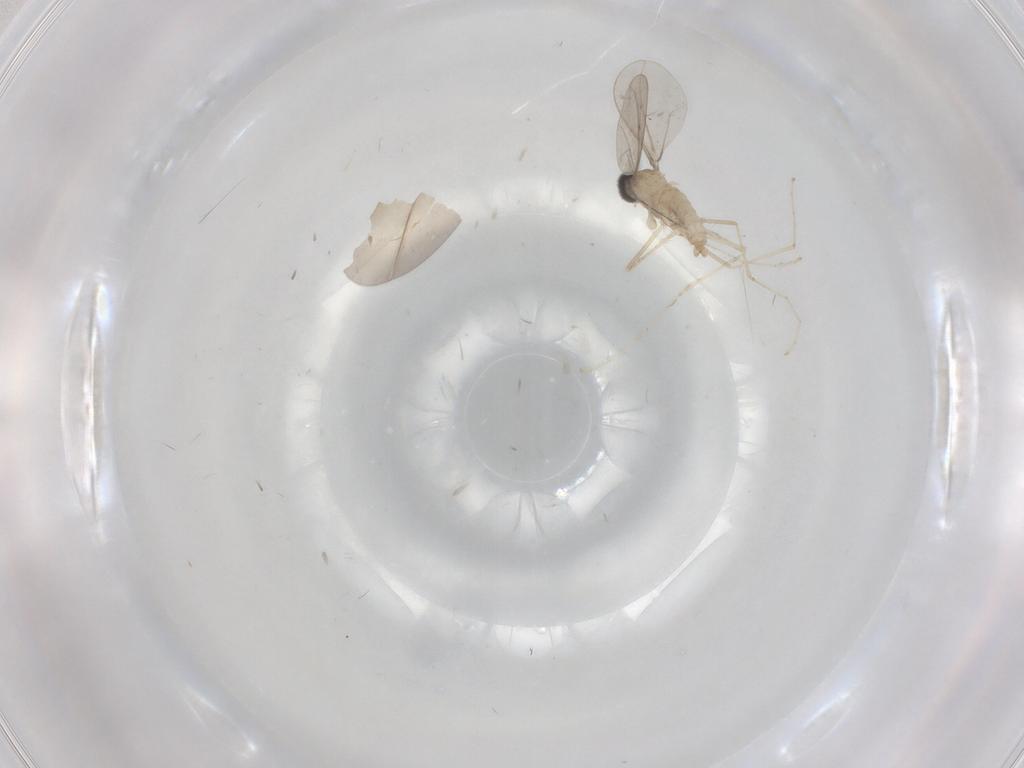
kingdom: Animalia
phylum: Arthropoda
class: Insecta
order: Diptera
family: Cecidomyiidae
